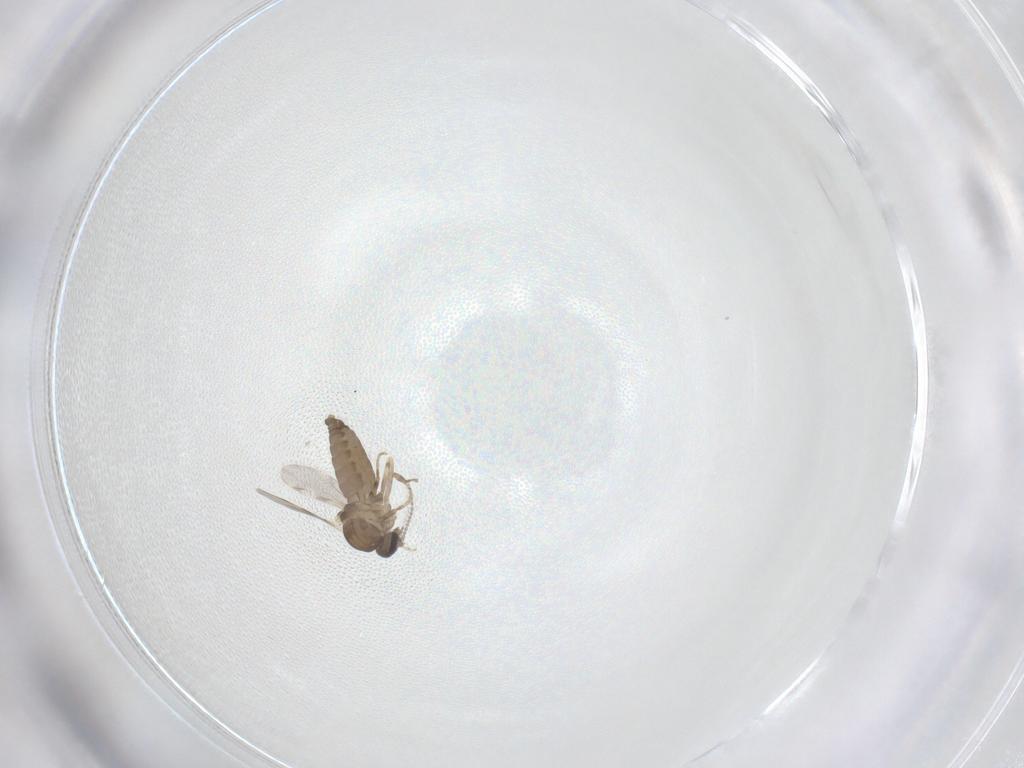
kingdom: Animalia
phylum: Arthropoda
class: Insecta
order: Diptera
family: Ceratopogonidae
